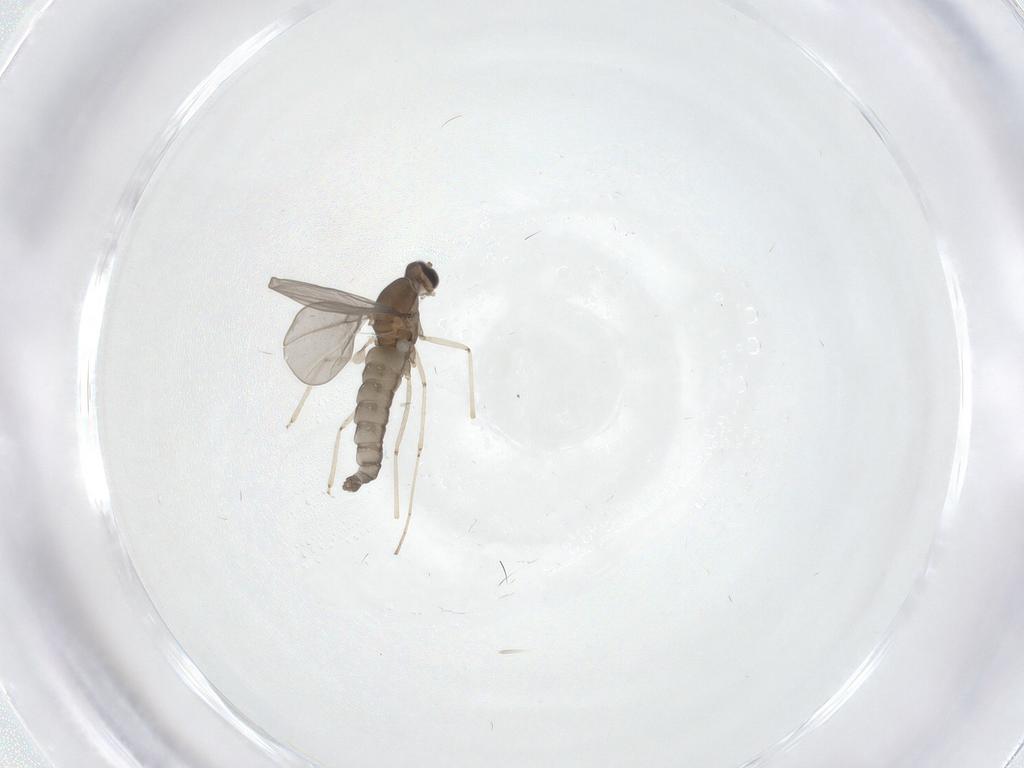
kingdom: Animalia
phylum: Arthropoda
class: Insecta
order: Diptera
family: Cecidomyiidae
